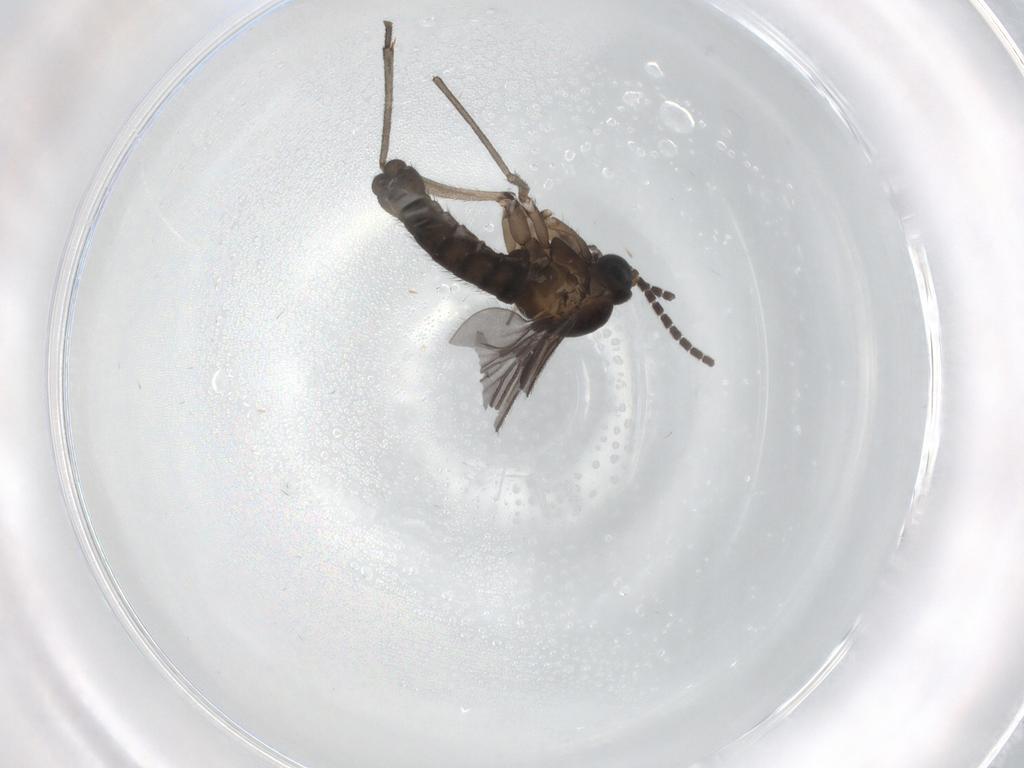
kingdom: Animalia
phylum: Arthropoda
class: Insecta
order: Diptera
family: Sciaridae
